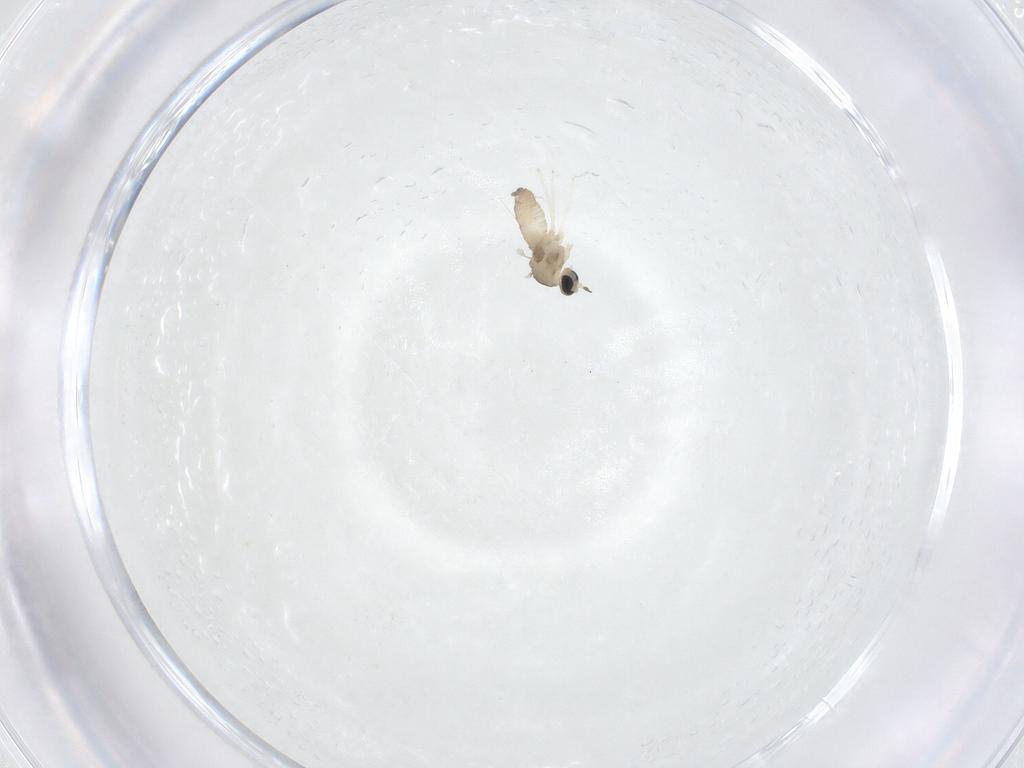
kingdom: Animalia
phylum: Arthropoda
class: Insecta
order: Diptera
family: Cecidomyiidae
